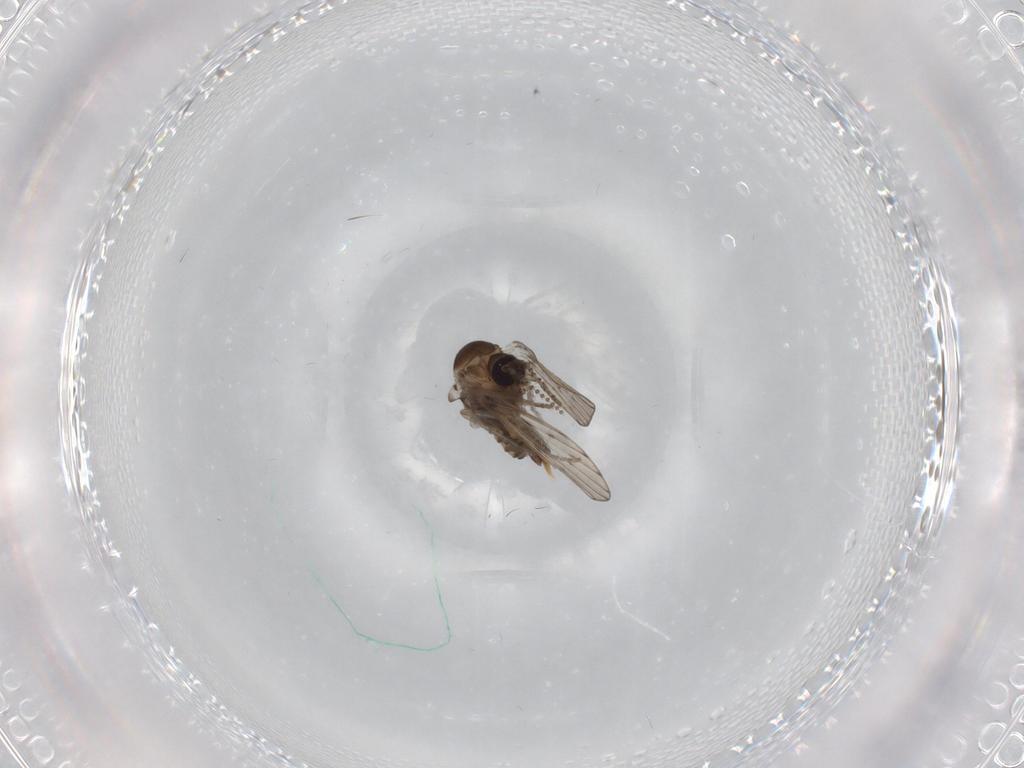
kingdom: Animalia
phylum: Arthropoda
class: Insecta
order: Diptera
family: Psychodidae
